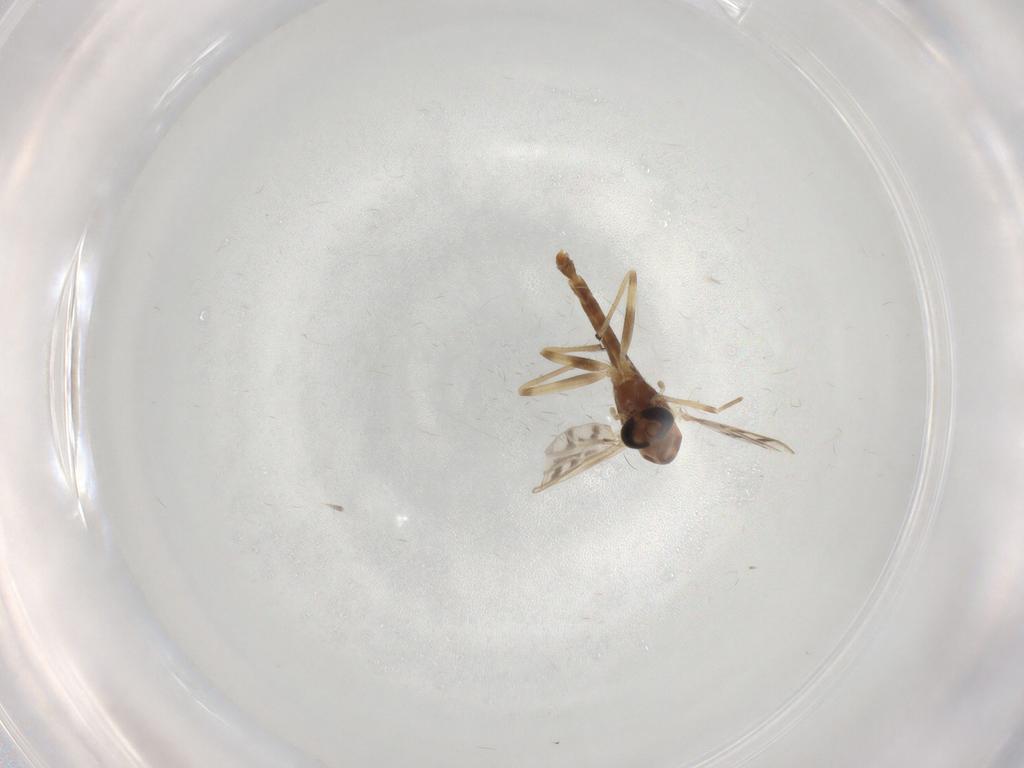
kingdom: Animalia
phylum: Arthropoda
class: Insecta
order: Diptera
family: Chironomidae
